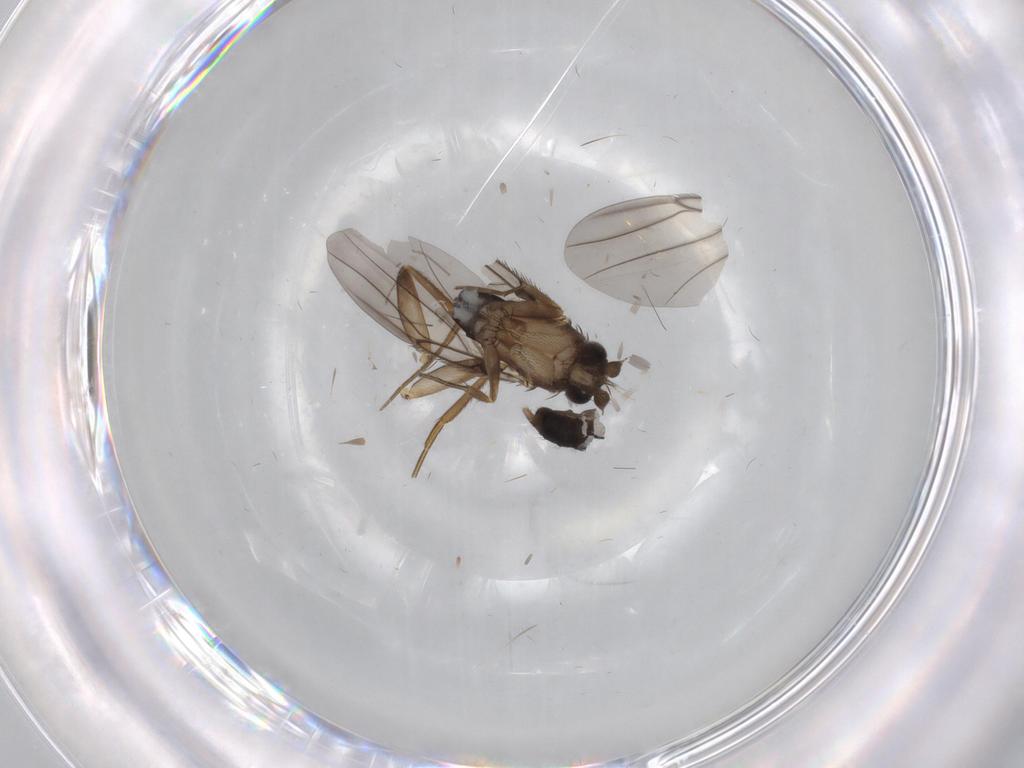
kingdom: Animalia
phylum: Arthropoda
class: Insecta
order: Diptera
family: Phoridae
